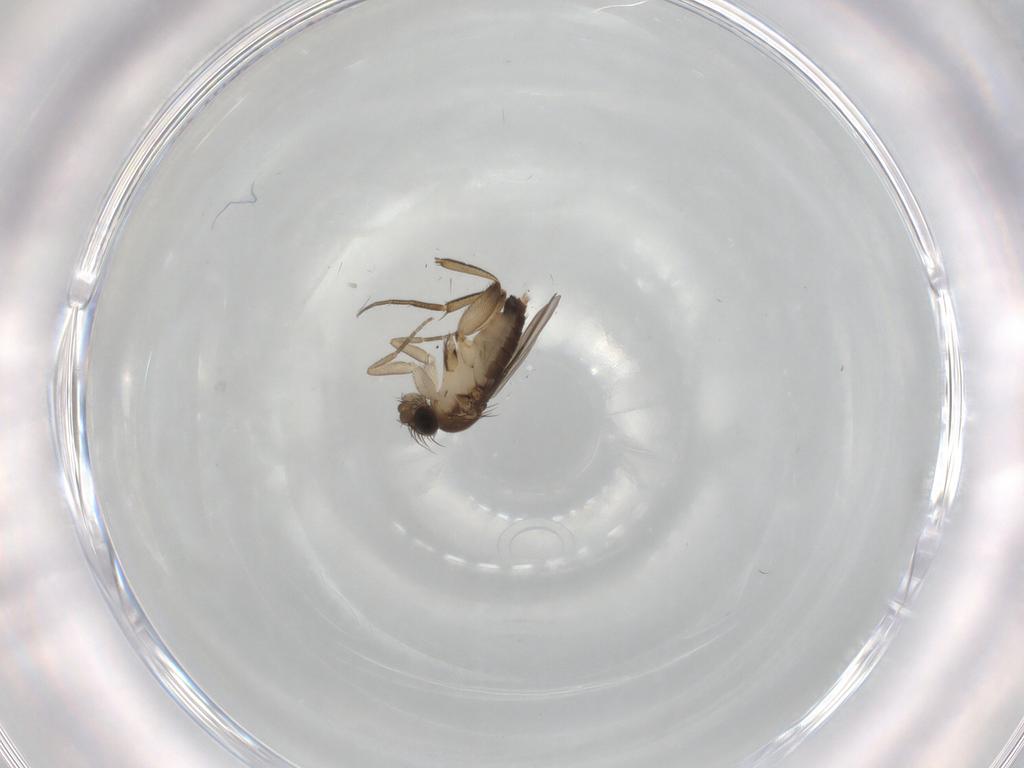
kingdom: Animalia
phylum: Arthropoda
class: Insecta
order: Diptera
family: Phoridae
